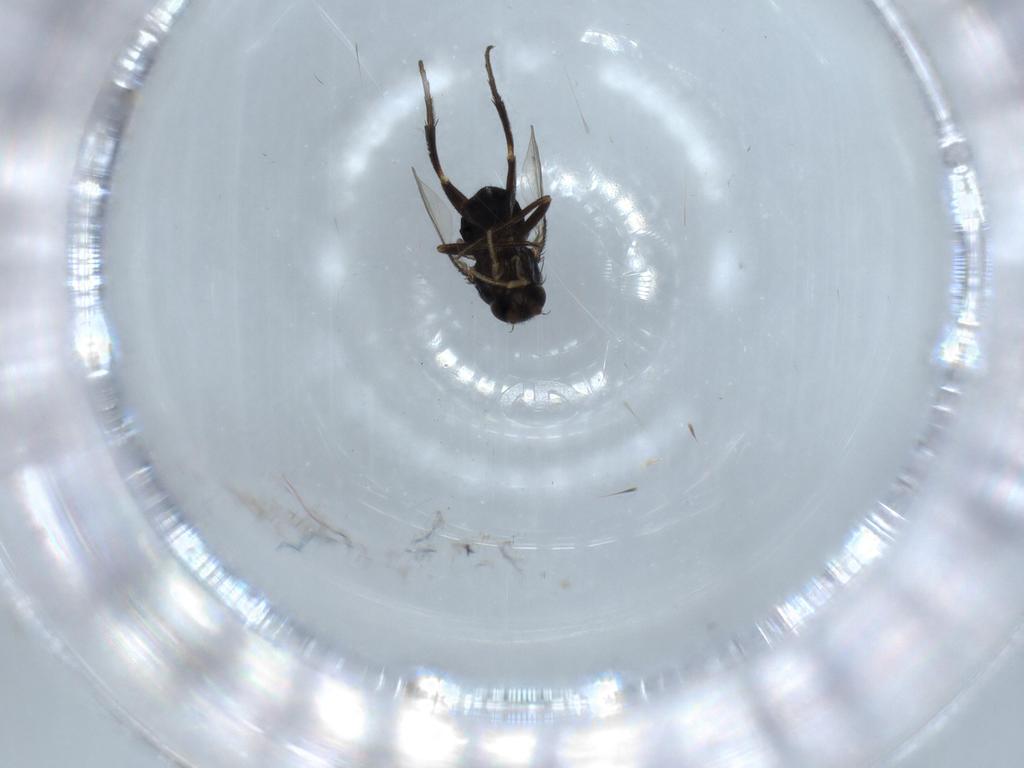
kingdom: Animalia
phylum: Arthropoda
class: Insecta
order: Diptera
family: Phoridae
